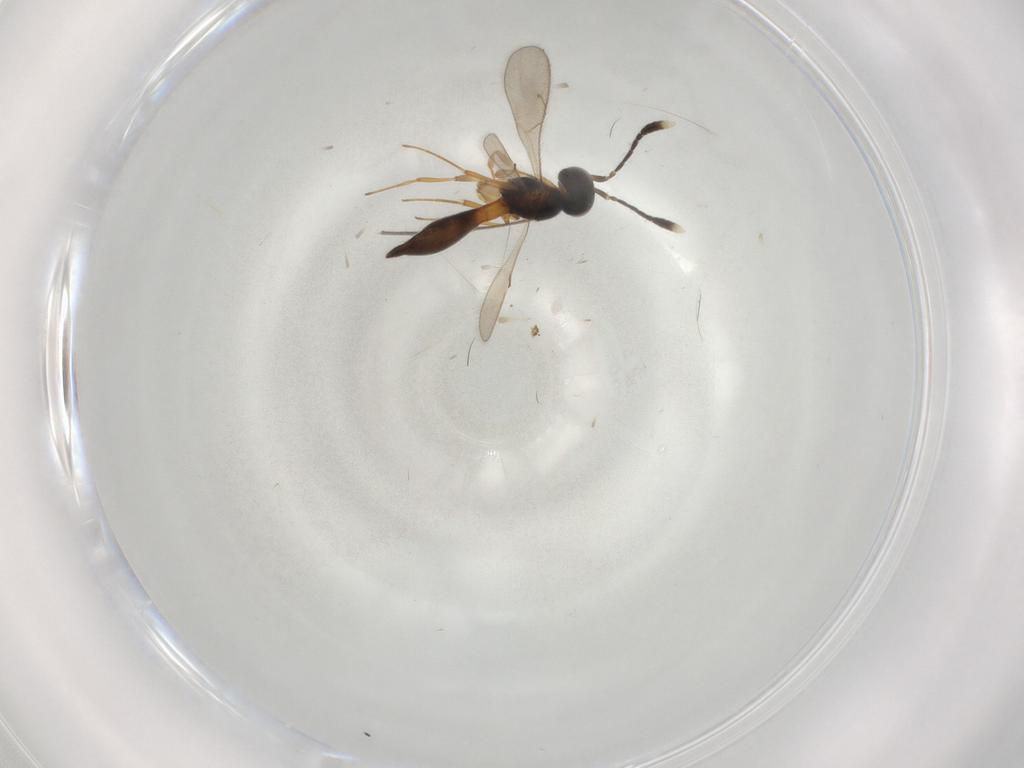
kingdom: Animalia
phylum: Arthropoda
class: Insecta
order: Hymenoptera
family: Scelionidae
